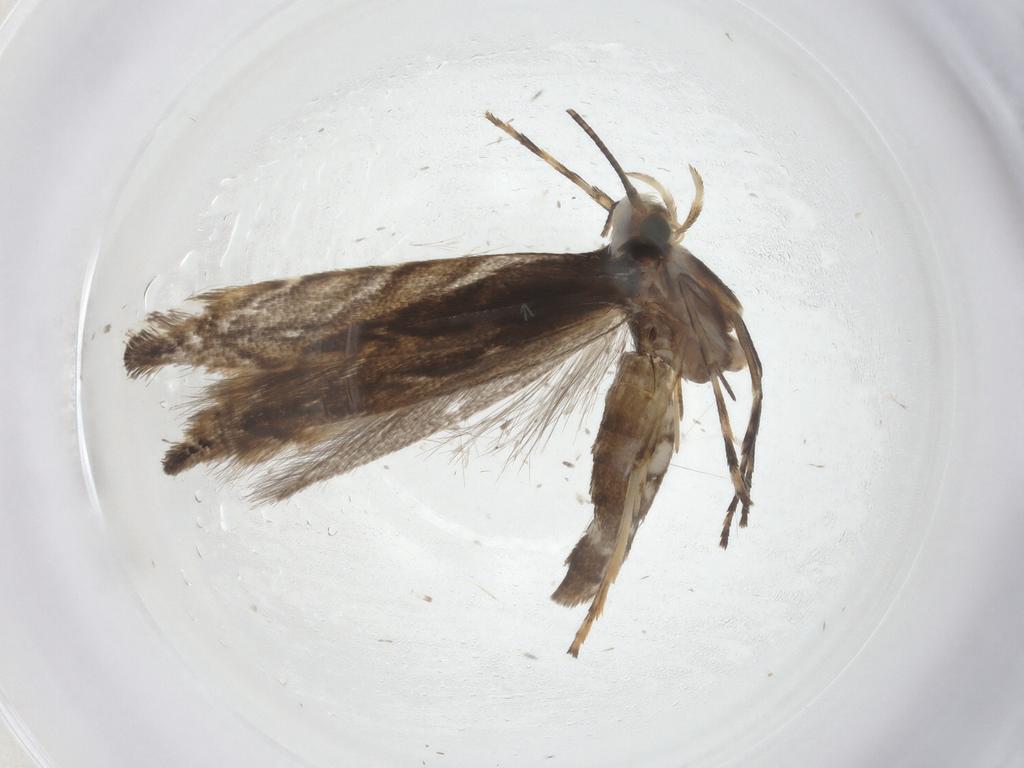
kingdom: Animalia
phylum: Arthropoda
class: Insecta
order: Lepidoptera
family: Gracillariidae
